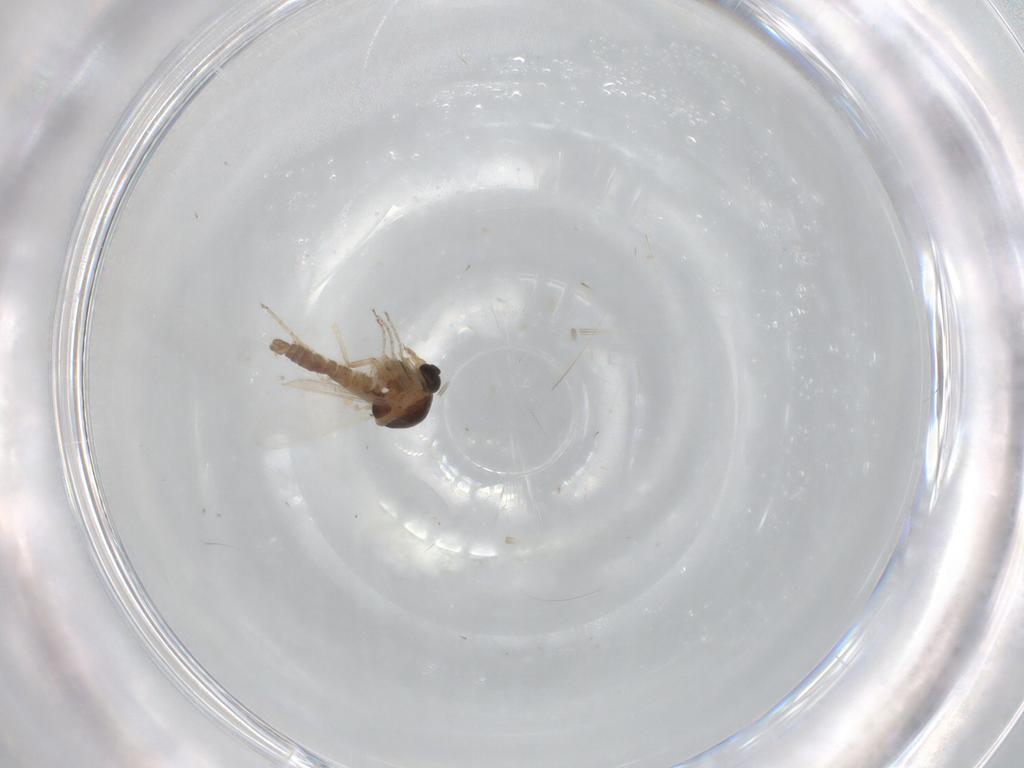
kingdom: Animalia
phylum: Arthropoda
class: Insecta
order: Diptera
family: Ceratopogonidae
